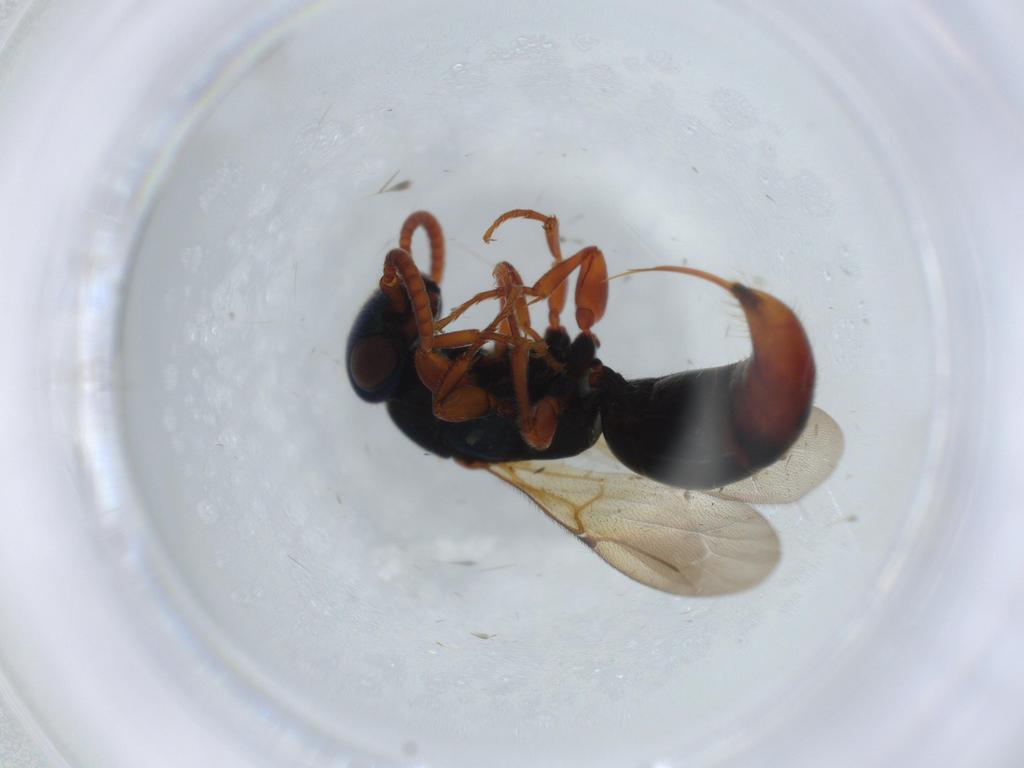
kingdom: Animalia
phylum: Arthropoda
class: Insecta
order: Hymenoptera
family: Bethylidae
